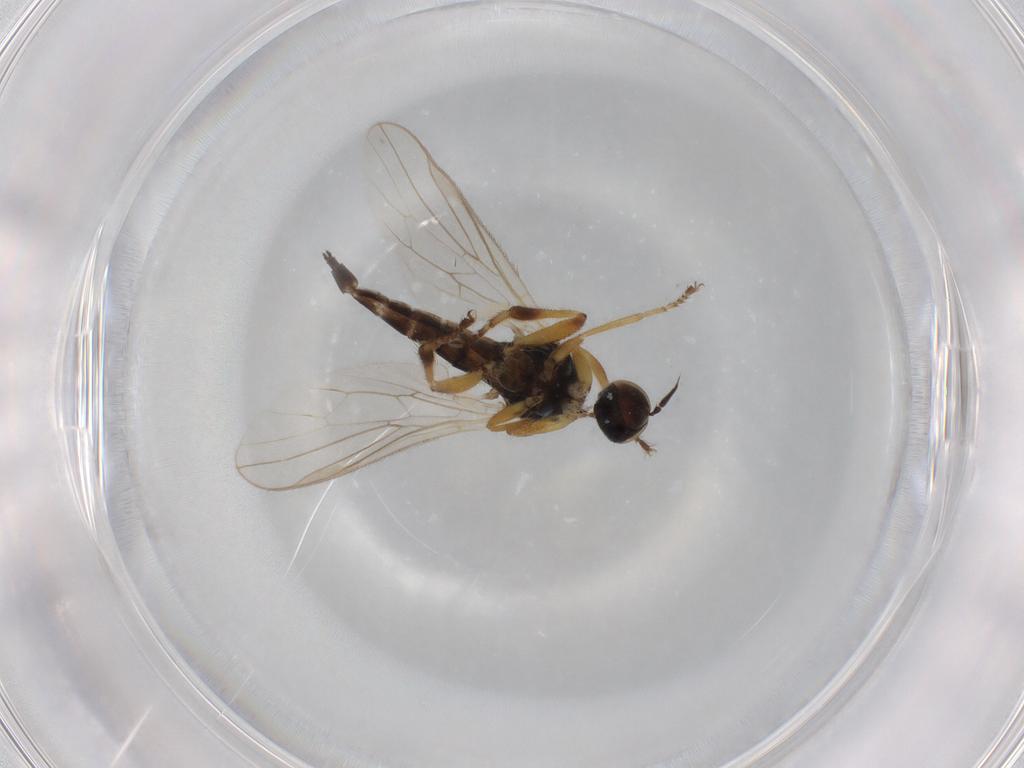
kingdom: Animalia
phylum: Arthropoda
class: Insecta
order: Diptera
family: Hybotidae
